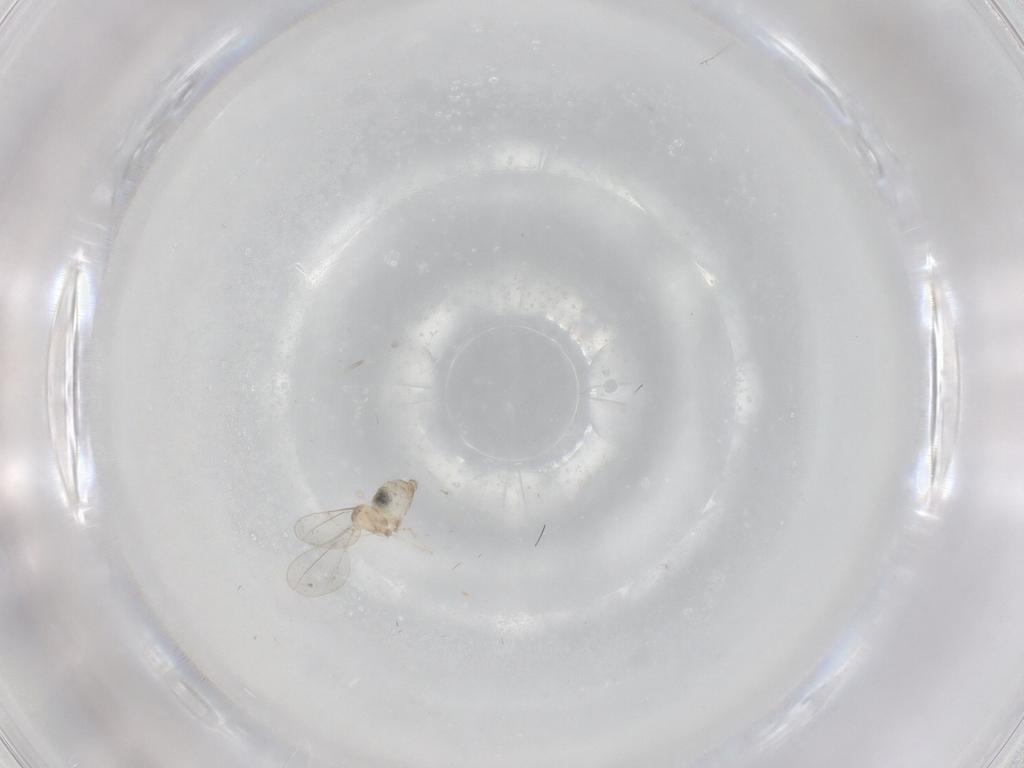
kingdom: Animalia
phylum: Arthropoda
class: Insecta
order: Diptera
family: Cecidomyiidae
